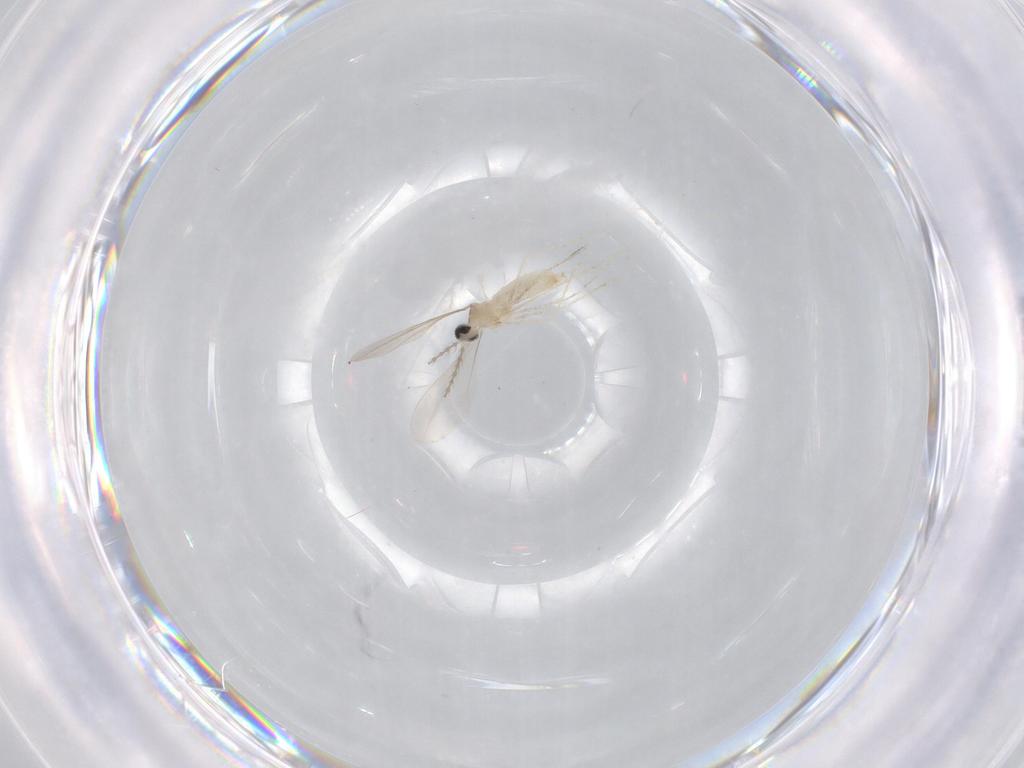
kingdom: Animalia
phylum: Arthropoda
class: Insecta
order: Diptera
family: Cecidomyiidae
